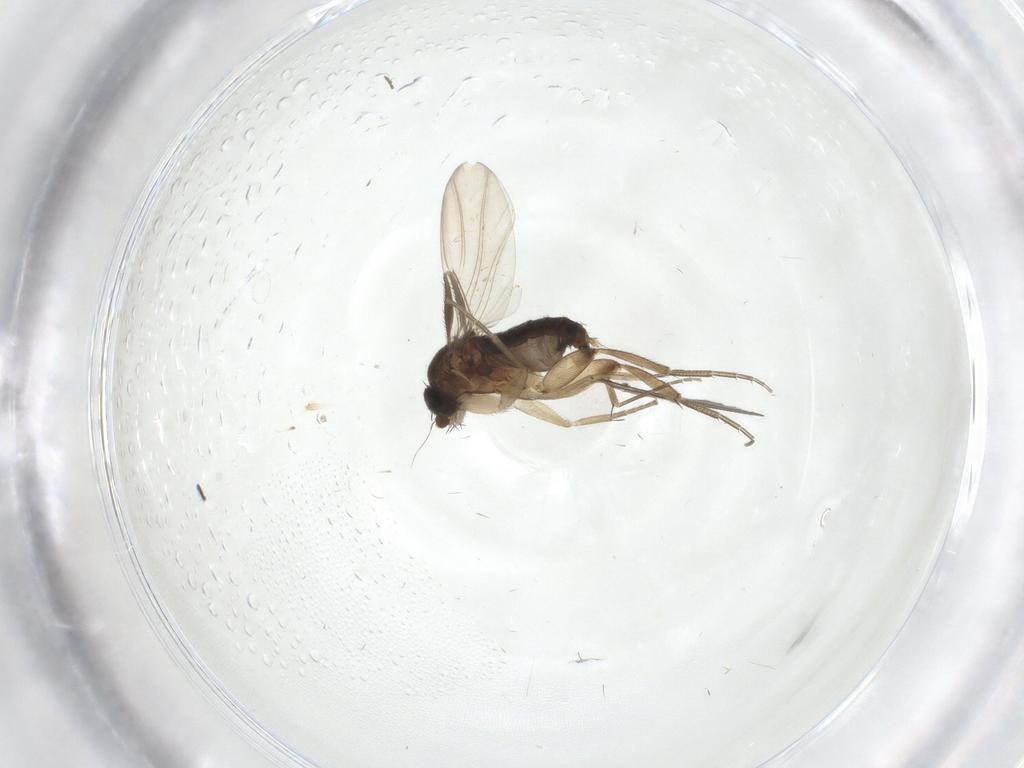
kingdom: Animalia
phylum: Arthropoda
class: Insecta
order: Diptera
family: Phoridae
